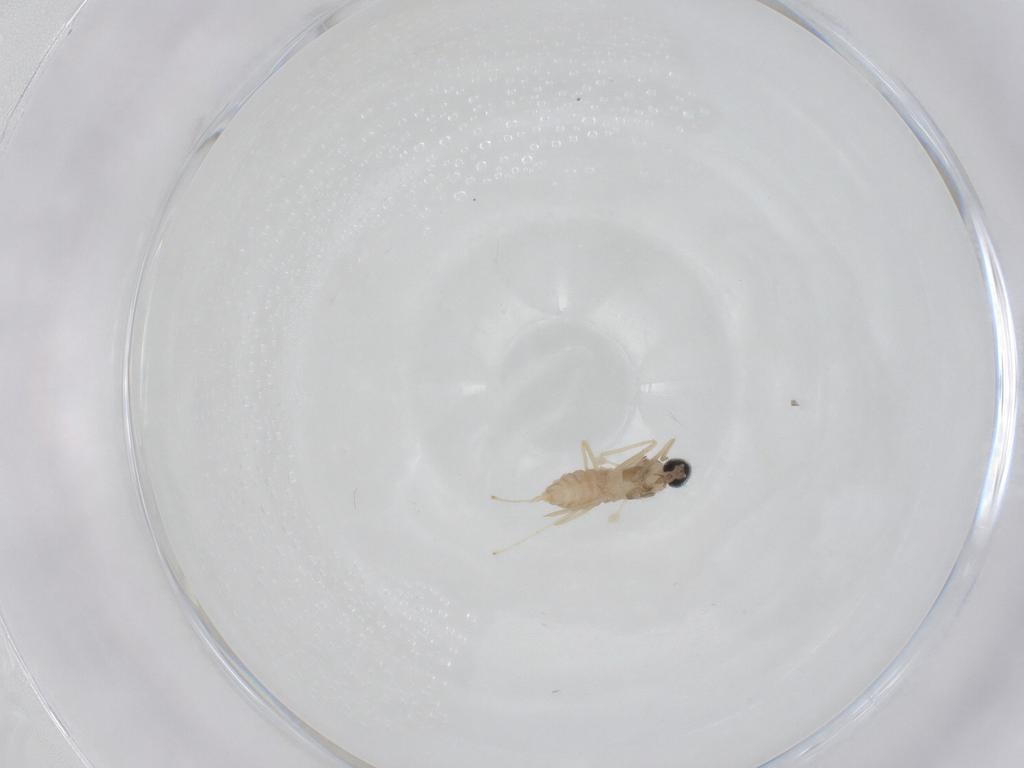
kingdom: Animalia
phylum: Arthropoda
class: Insecta
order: Diptera
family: Cecidomyiidae
